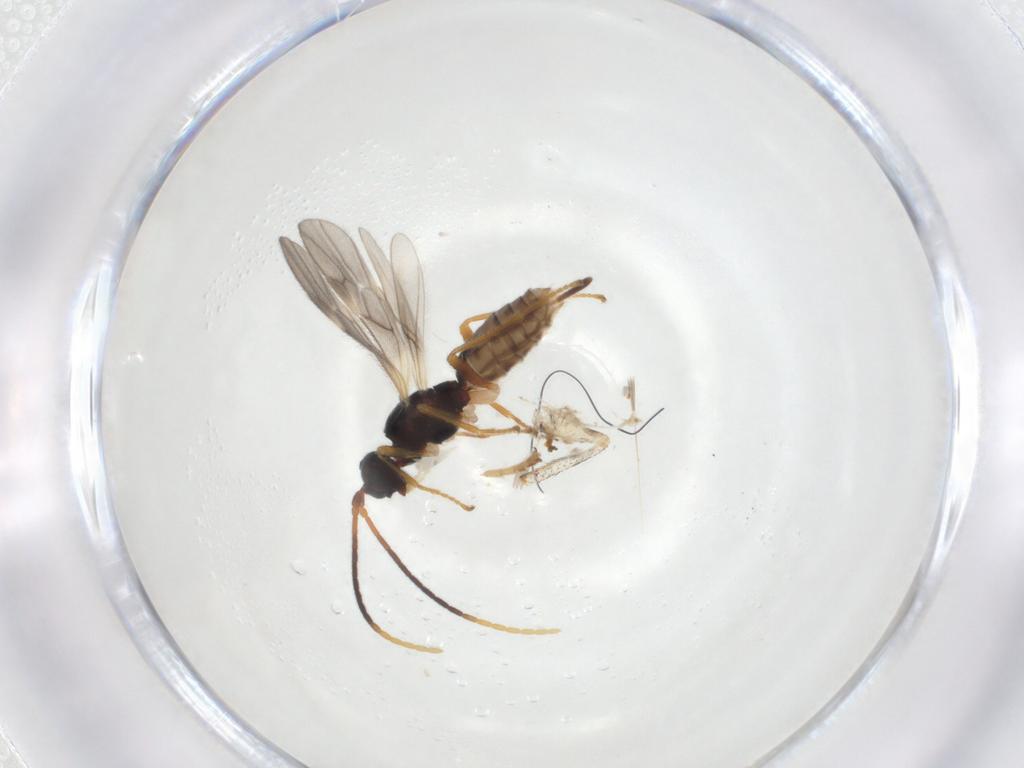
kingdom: Animalia
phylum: Arthropoda
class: Insecta
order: Hymenoptera
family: Braconidae
